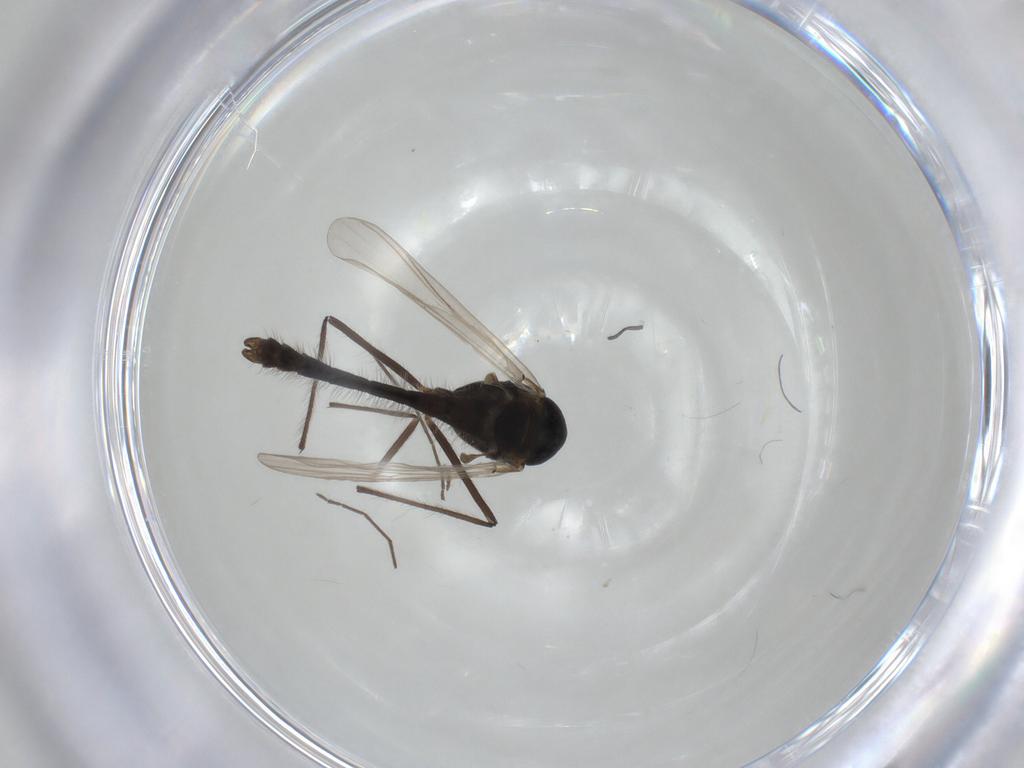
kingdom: Animalia
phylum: Arthropoda
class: Insecta
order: Diptera
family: Chironomidae
